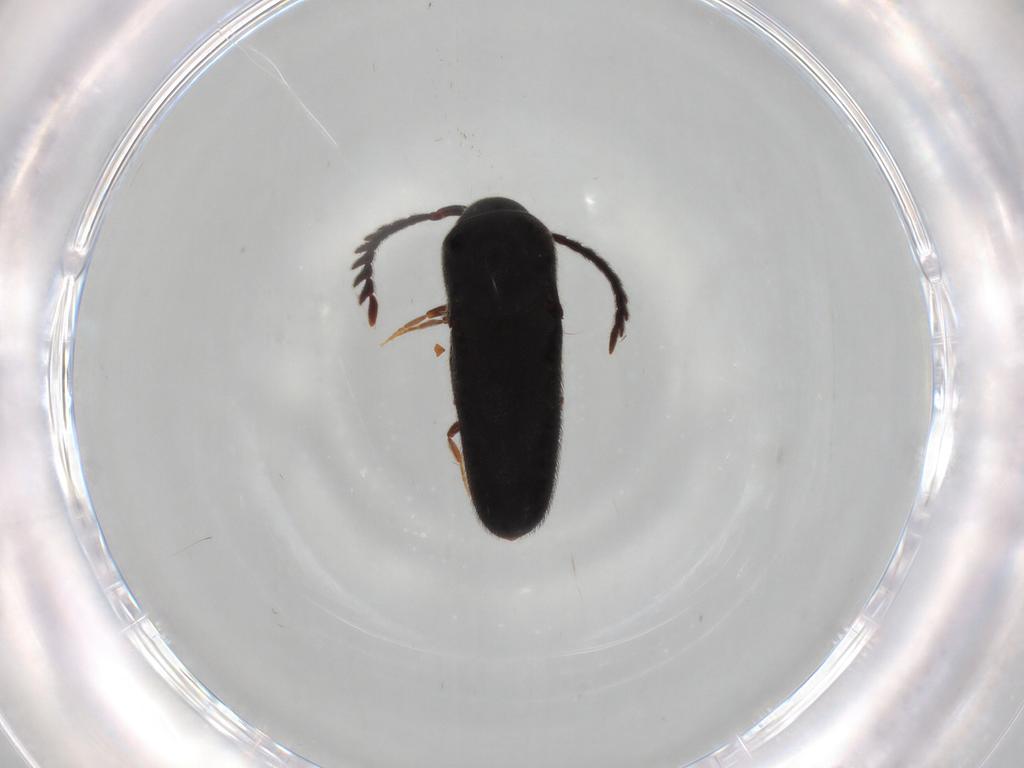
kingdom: Animalia
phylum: Arthropoda
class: Insecta
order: Coleoptera
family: Eucnemidae
